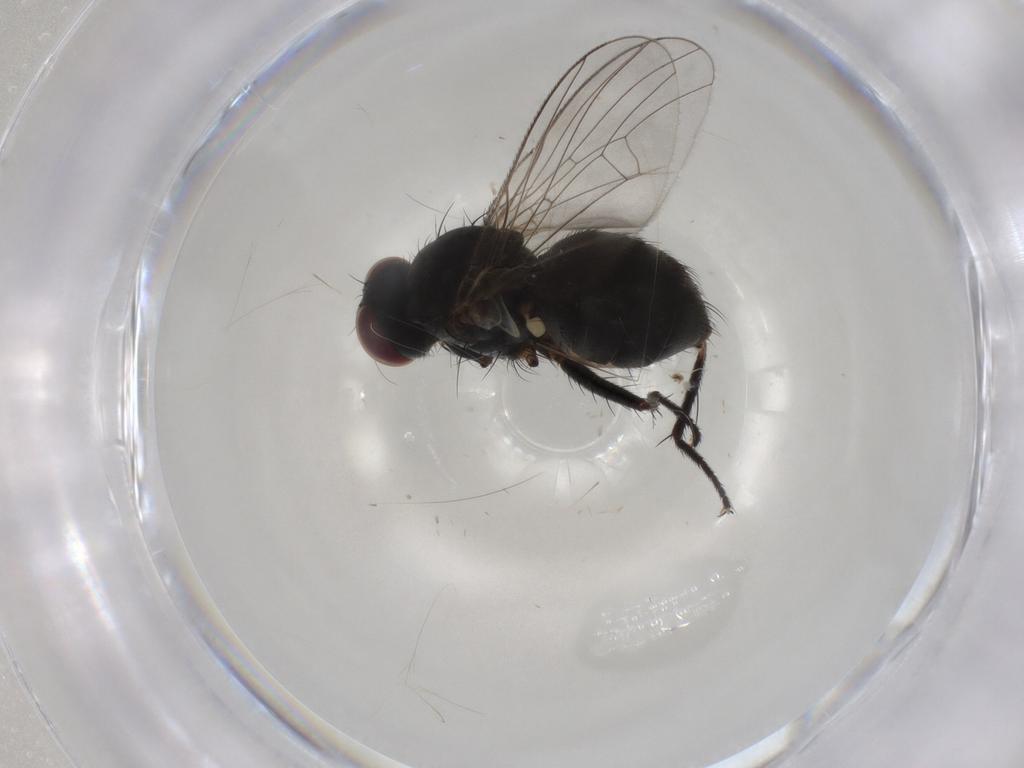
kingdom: Animalia
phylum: Arthropoda
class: Insecta
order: Diptera
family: Muscidae
